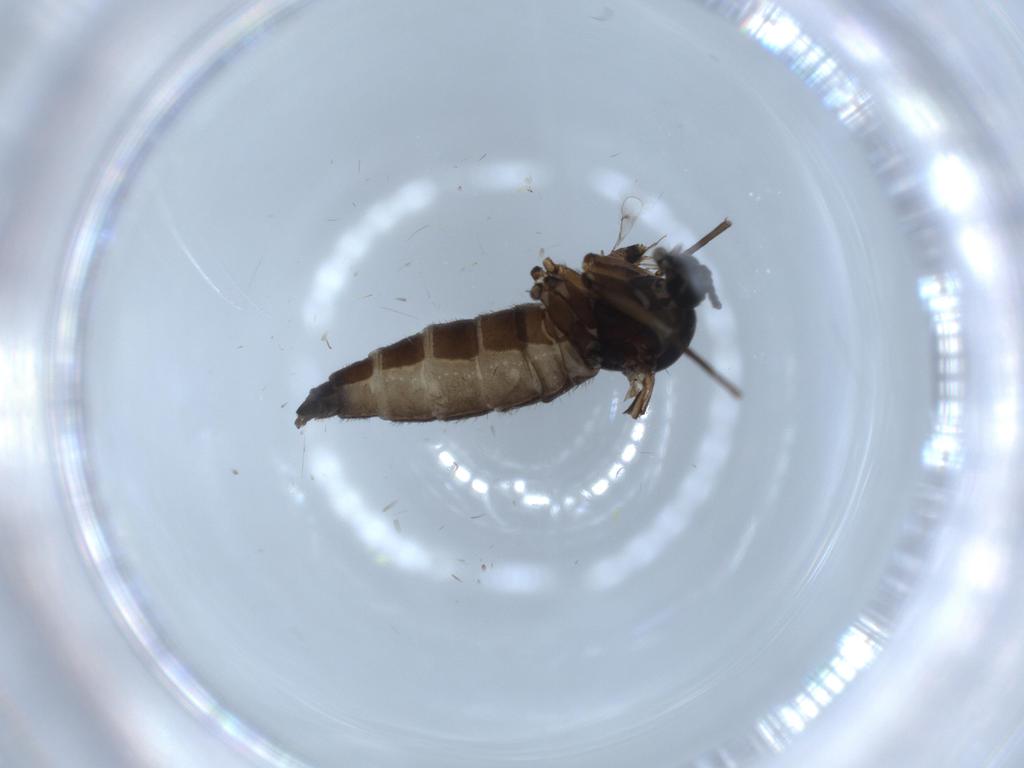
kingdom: Animalia
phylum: Arthropoda
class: Insecta
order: Diptera
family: Sciaridae
